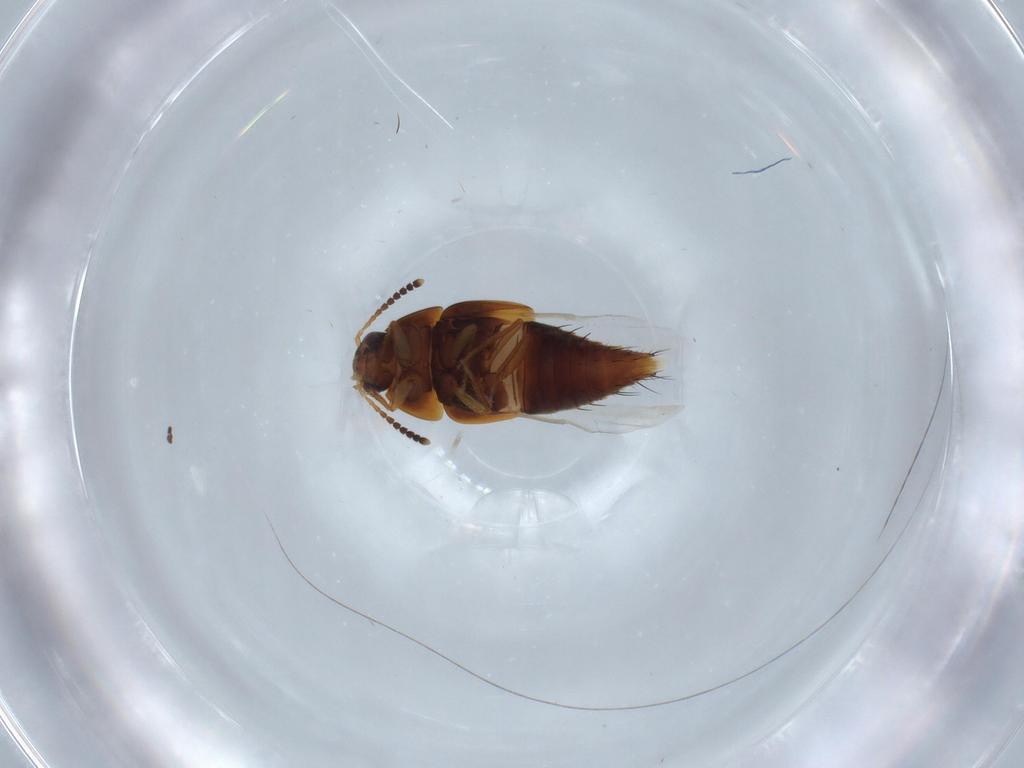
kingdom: Animalia
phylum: Arthropoda
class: Insecta
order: Coleoptera
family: Staphylinidae
